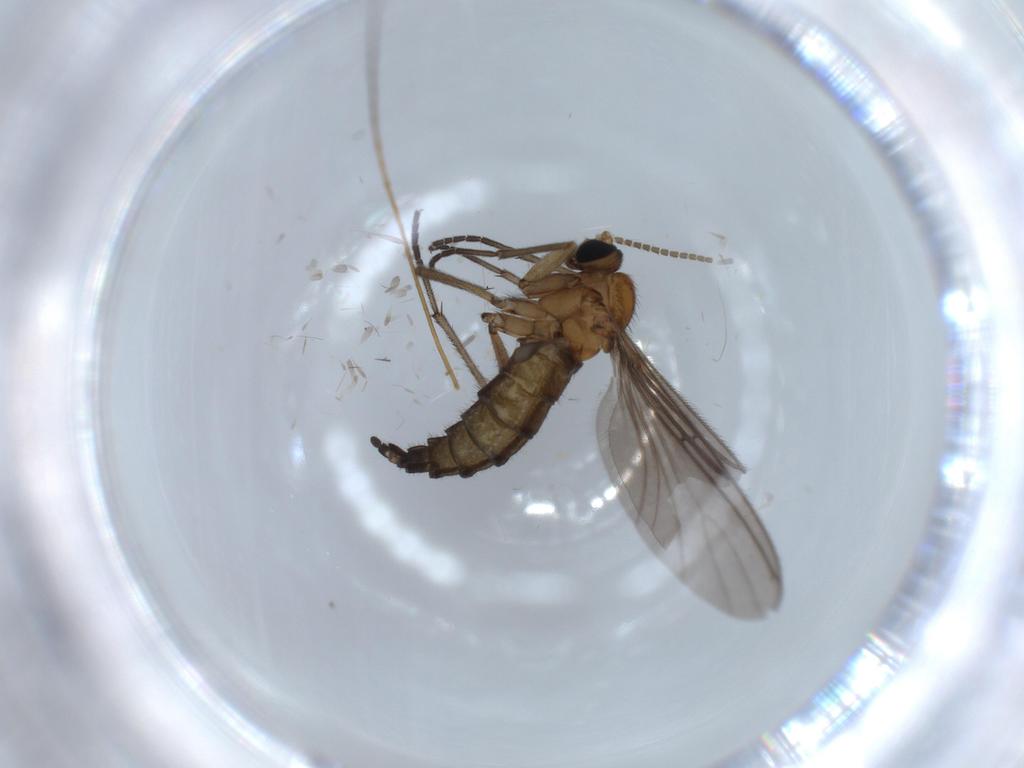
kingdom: Animalia
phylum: Arthropoda
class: Insecta
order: Diptera
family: Sciaridae
